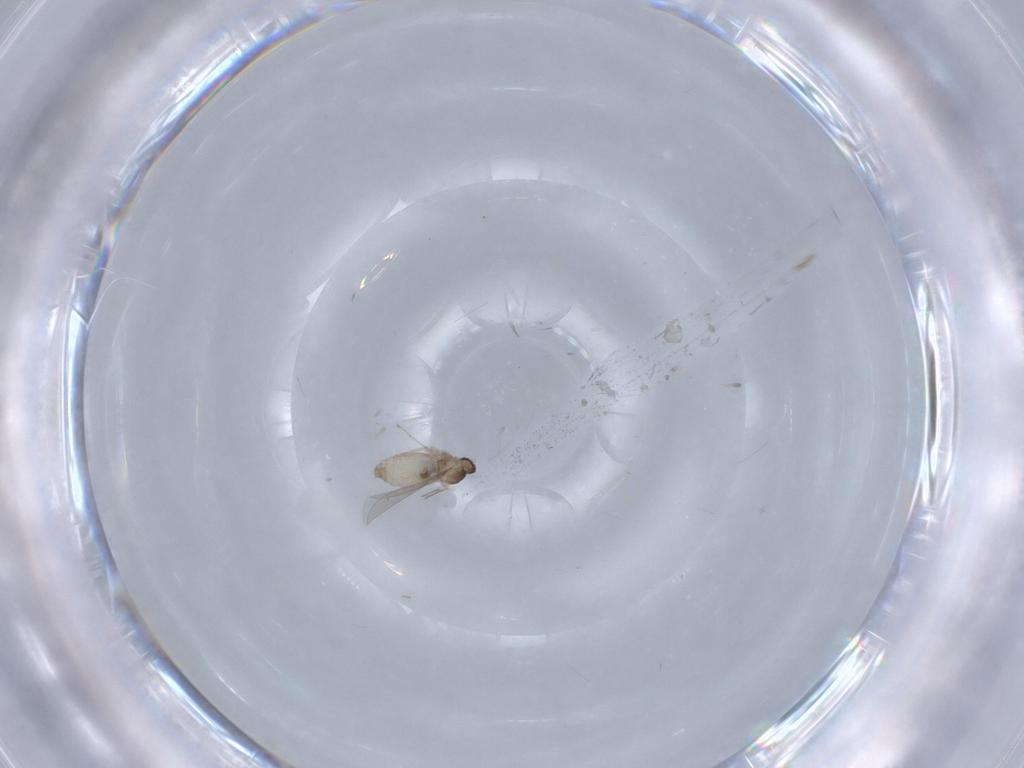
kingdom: Animalia
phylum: Arthropoda
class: Insecta
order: Diptera
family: Cecidomyiidae
